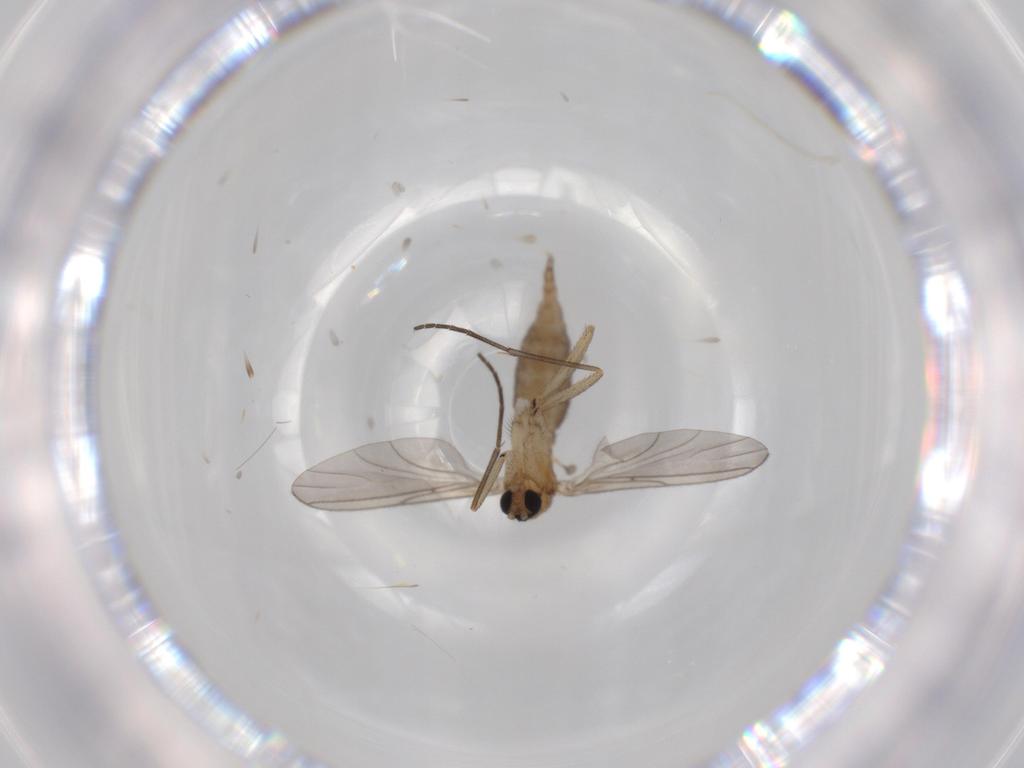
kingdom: Animalia
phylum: Arthropoda
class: Insecta
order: Diptera
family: Sciaridae
